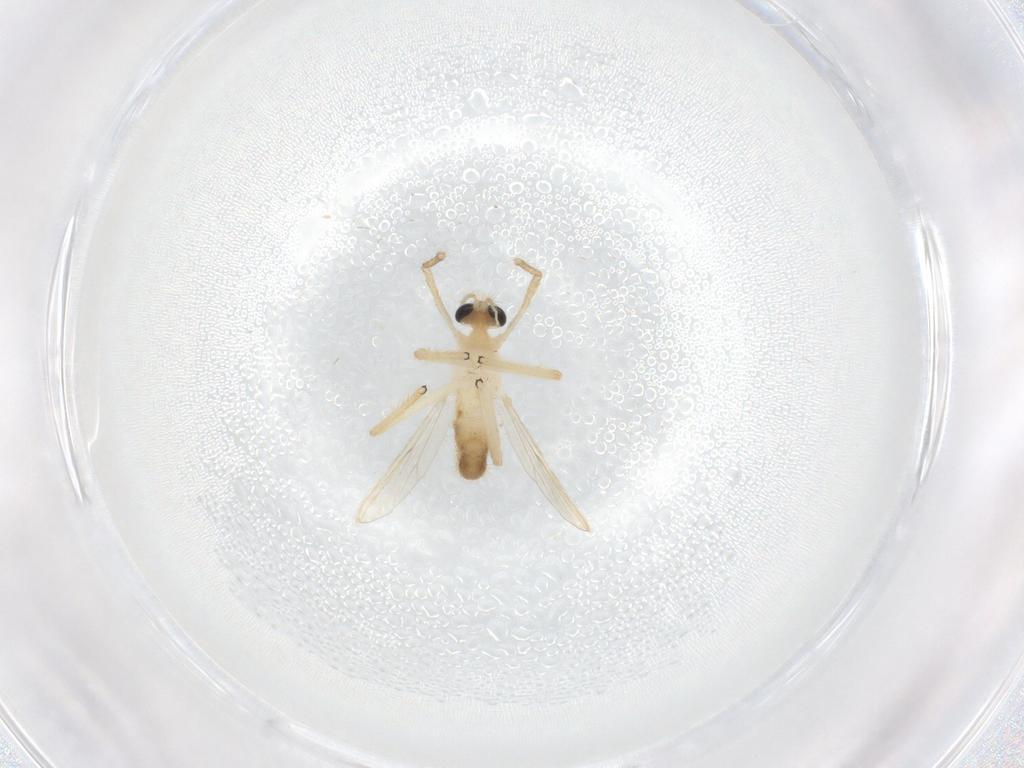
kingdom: Animalia
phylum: Arthropoda
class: Insecta
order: Diptera
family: Chironomidae
